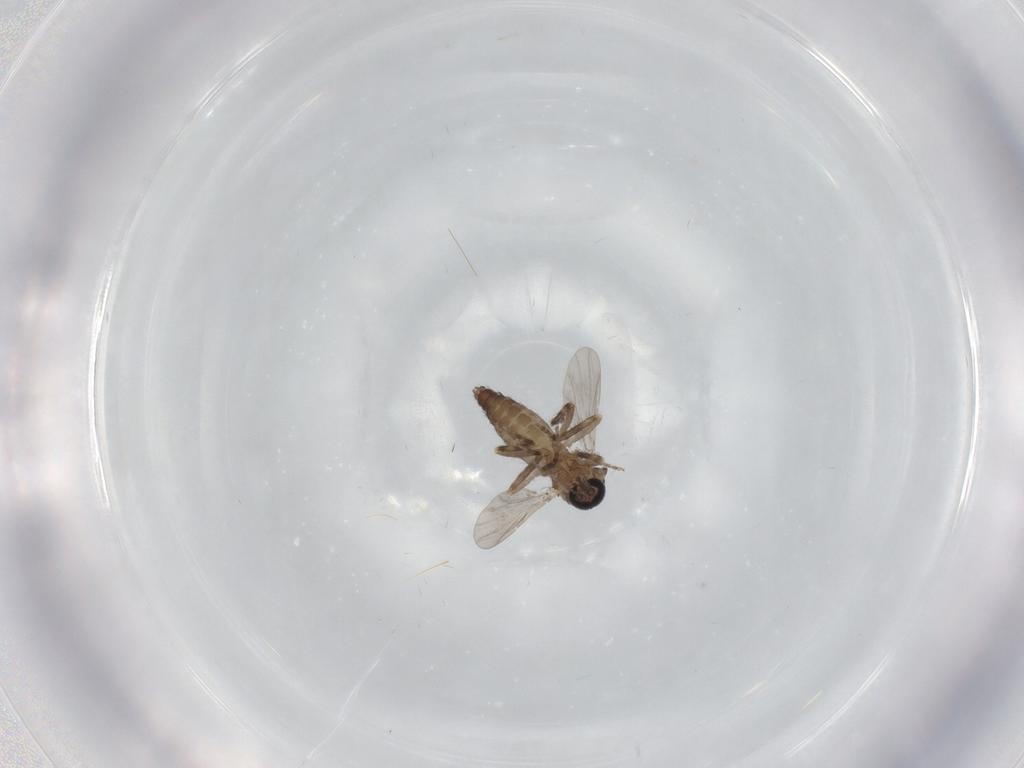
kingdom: Animalia
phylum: Arthropoda
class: Insecta
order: Diptera
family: Ceratopogonidae
